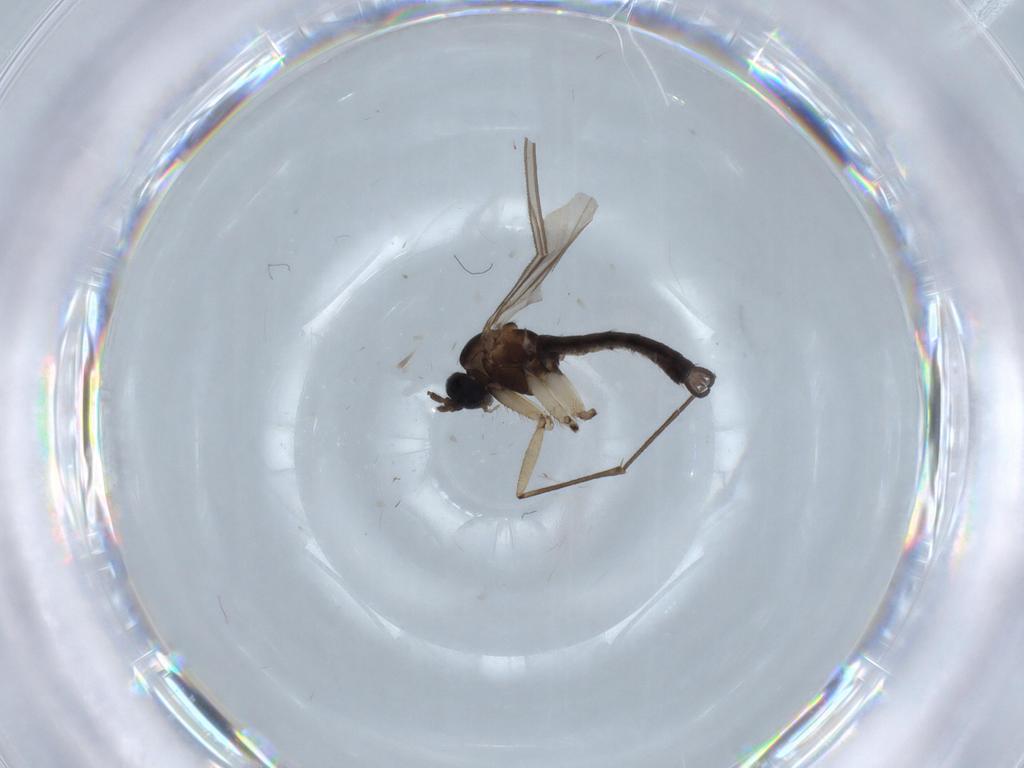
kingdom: Animalia
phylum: Arthropoda
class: Insecta
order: Diptera
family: Sciaridae
